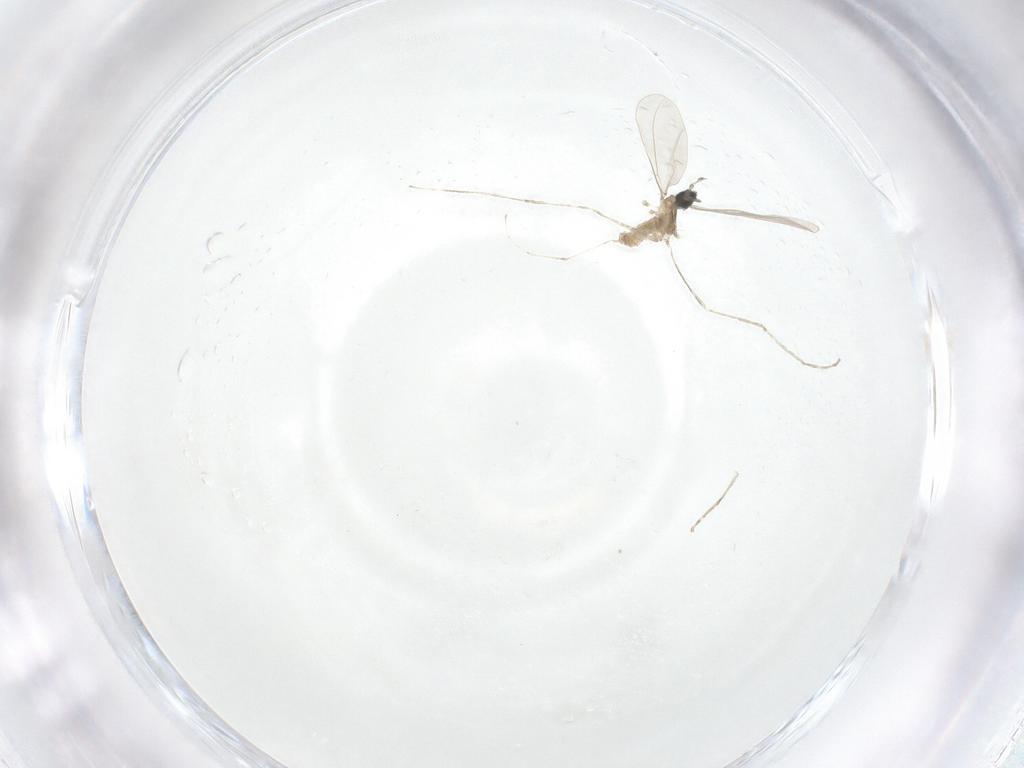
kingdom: Animalia
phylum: Arthropoda
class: Insecta
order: Diptera
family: Cecidomyiidae
